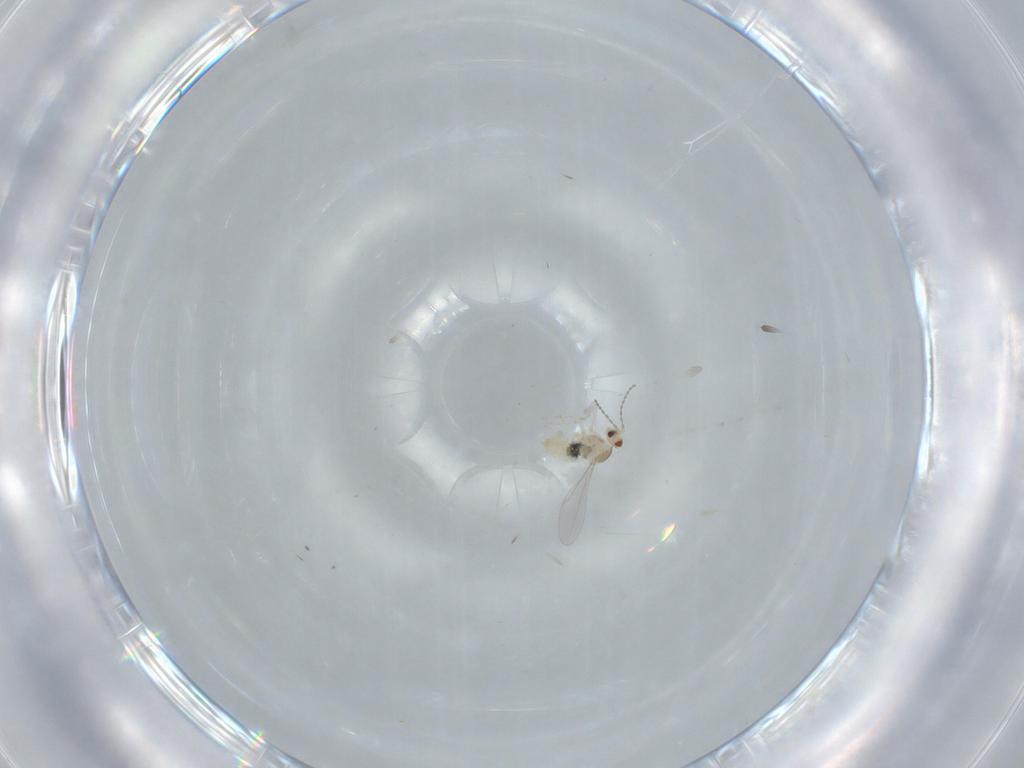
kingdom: Animalia
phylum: Arthropoda
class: Insecta
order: Diptera
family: Cecidomyiidae
